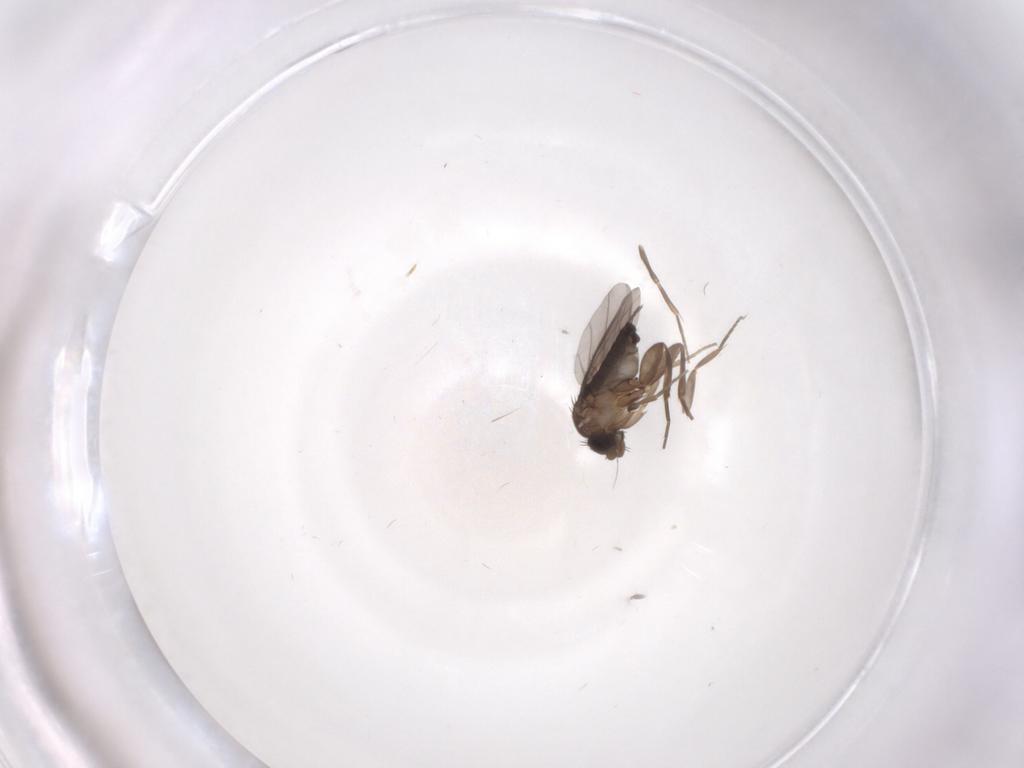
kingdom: Animalia
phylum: Arthropoda
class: Insecta
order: Diptera
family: Phoridae
